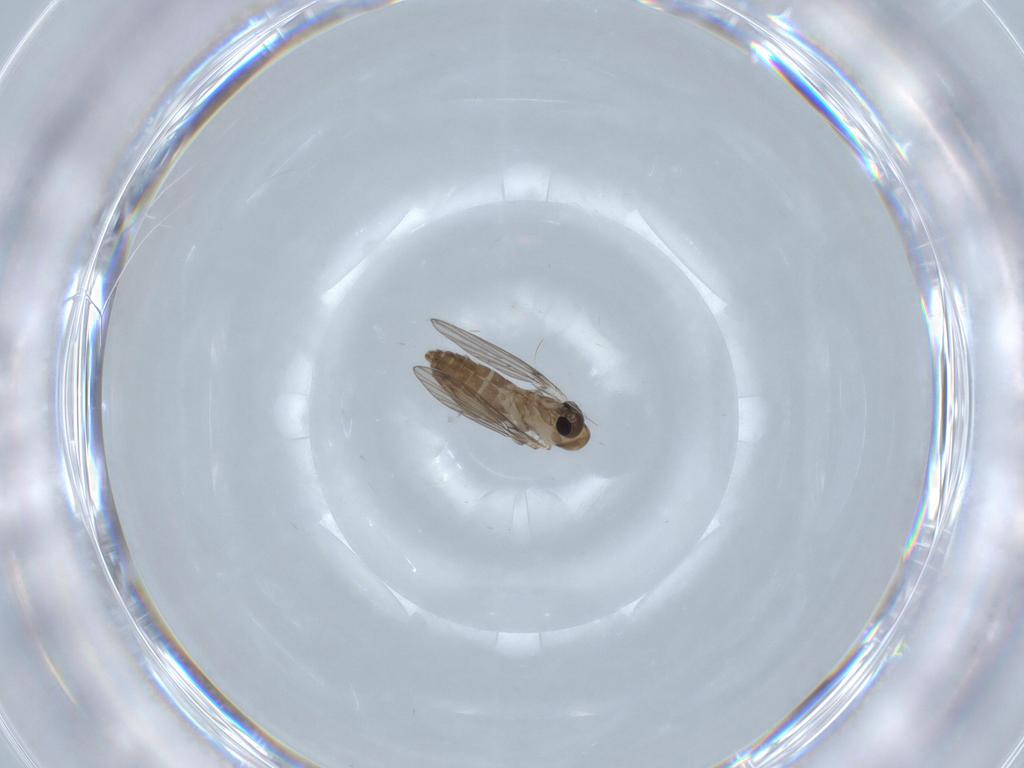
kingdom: Animalia
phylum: Arthropoda
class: Insecta
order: Diptera
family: Psychodidae
